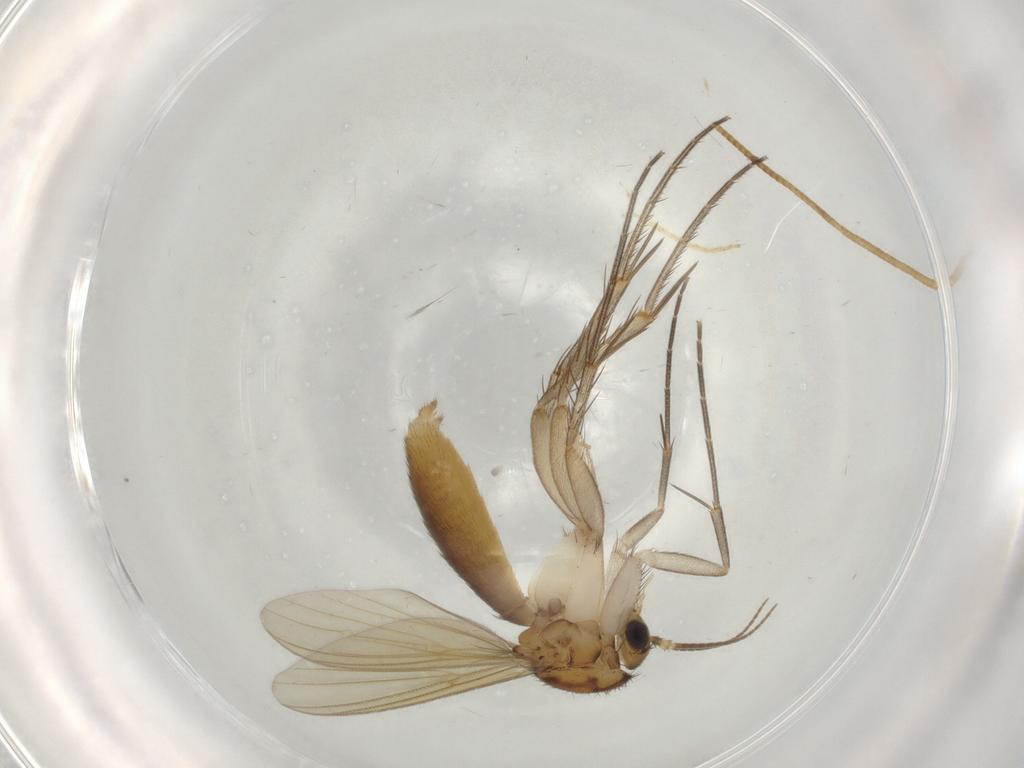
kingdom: Animalia
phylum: Arthropoda
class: Insecta
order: Diptera
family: Mycetophilidae
